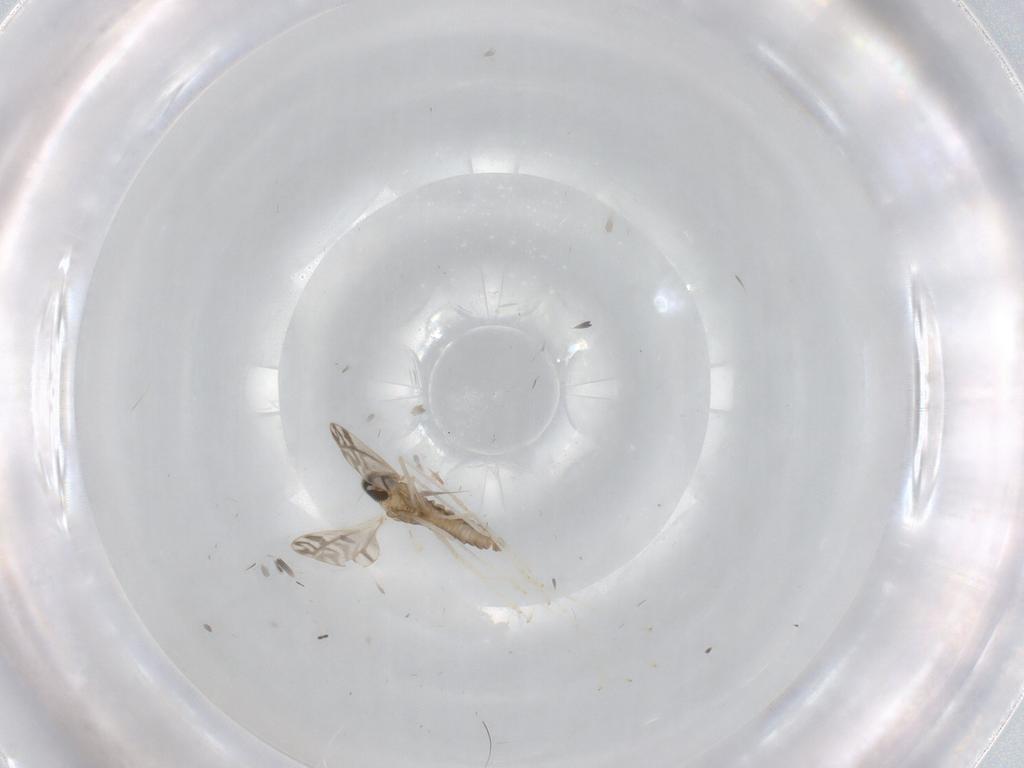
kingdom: Animalia
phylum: Arthropoda
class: Insecta
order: Diptera
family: Cecidomyiidae
